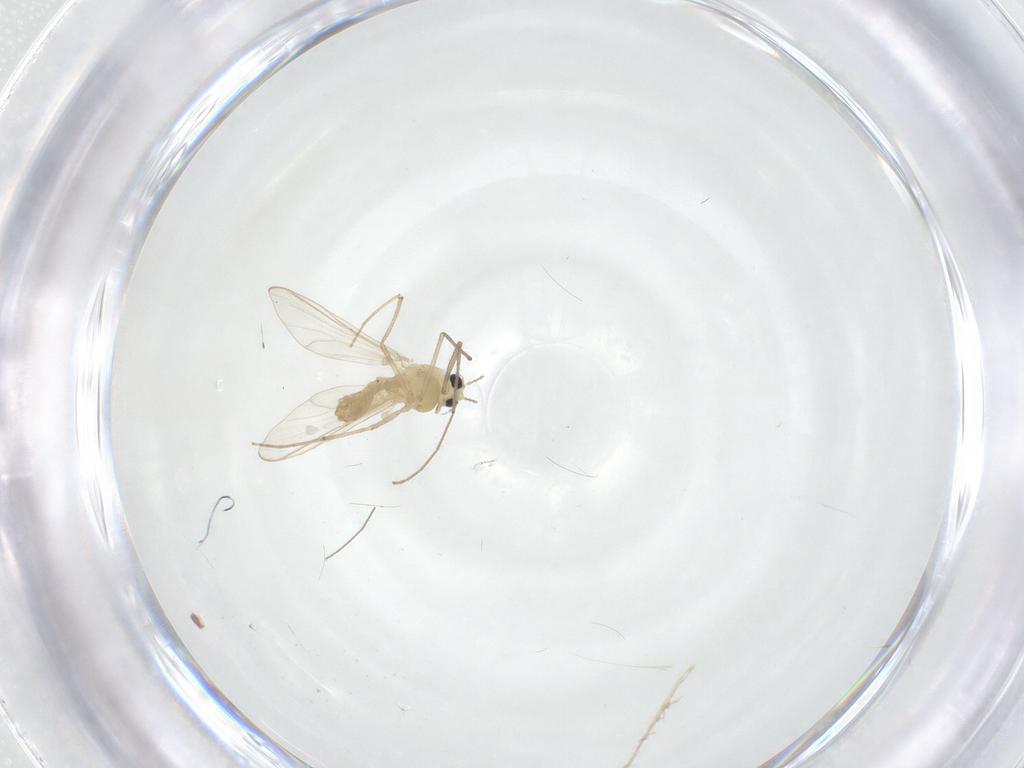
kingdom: Animalia
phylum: Arthropoda
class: Insecta
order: Diptera
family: Chironomidae
